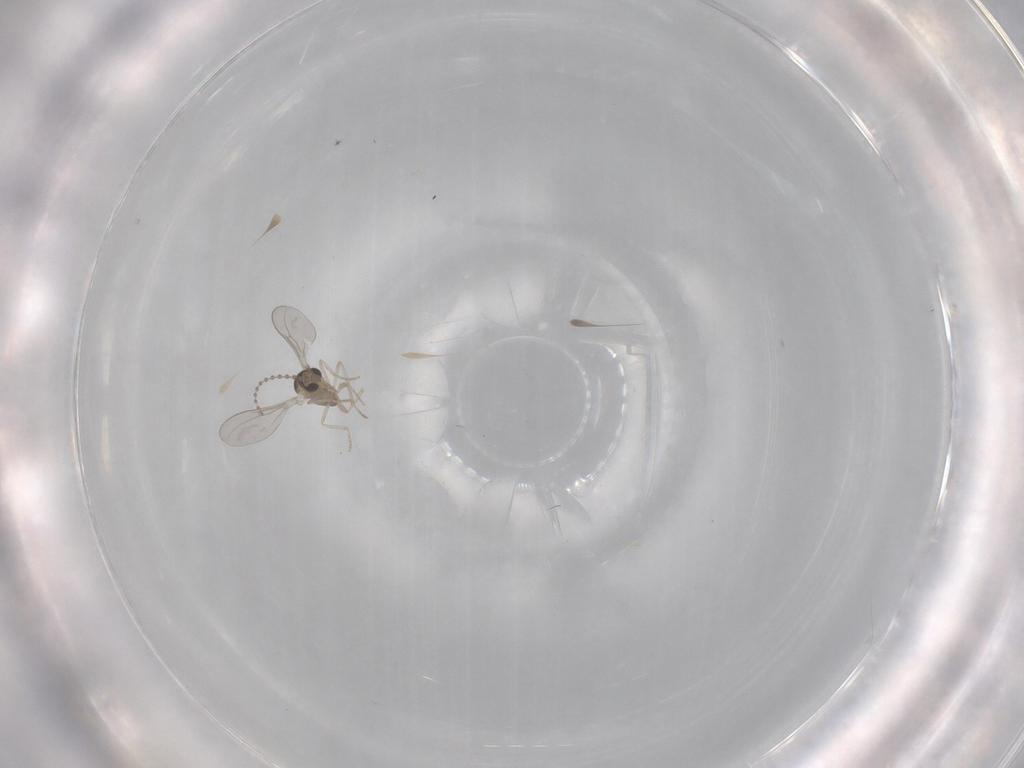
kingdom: Animalia
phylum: Arthropoda
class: Insecta
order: Diptera
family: Cecidomyiidae
